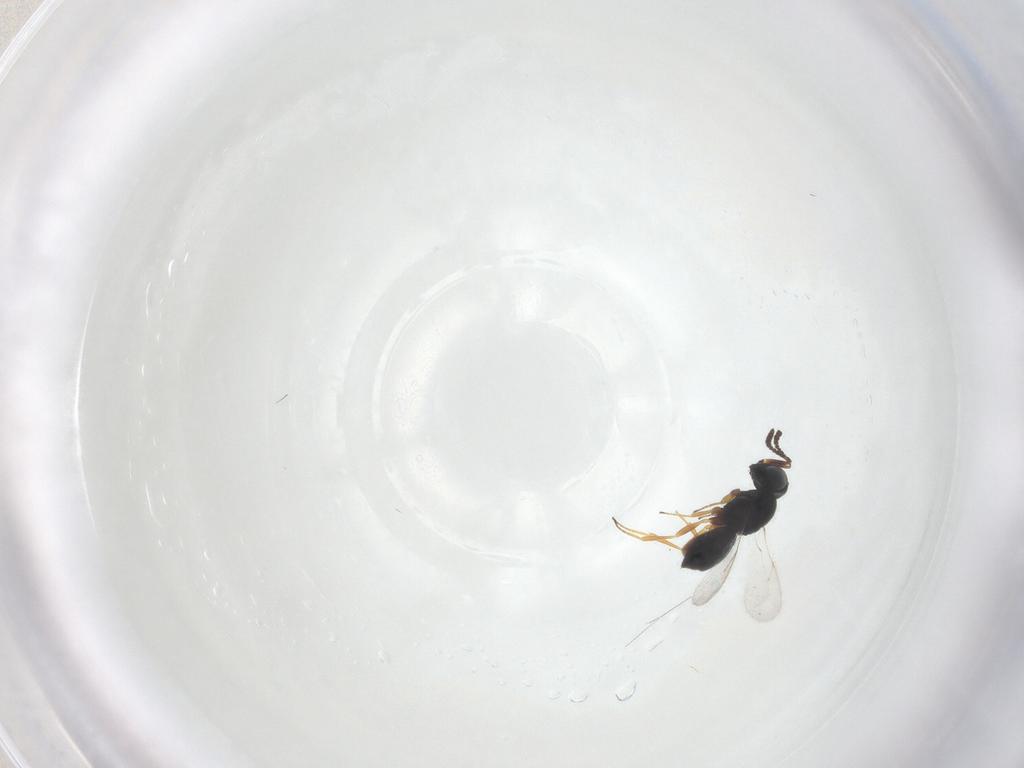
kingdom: Animalia
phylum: Arthropoda
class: Insecta
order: Hymenoptera
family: Scelionidae
